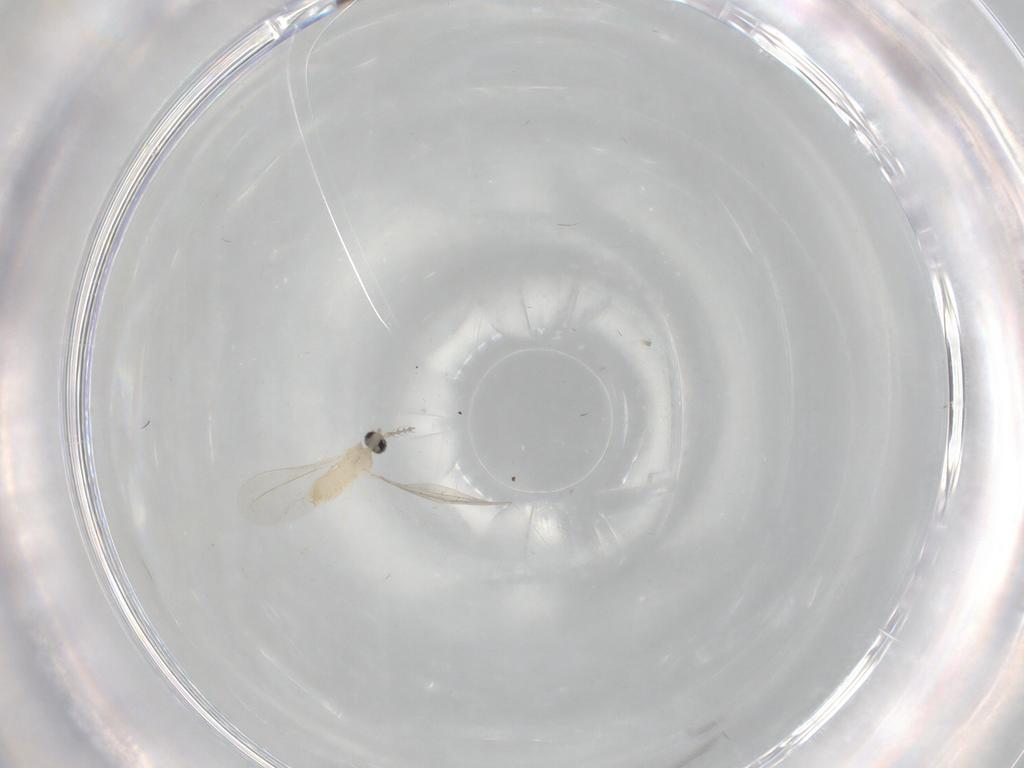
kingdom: Animalia
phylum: Arthropoda
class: Insecta
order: Diptera
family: Cecidomyiidae
